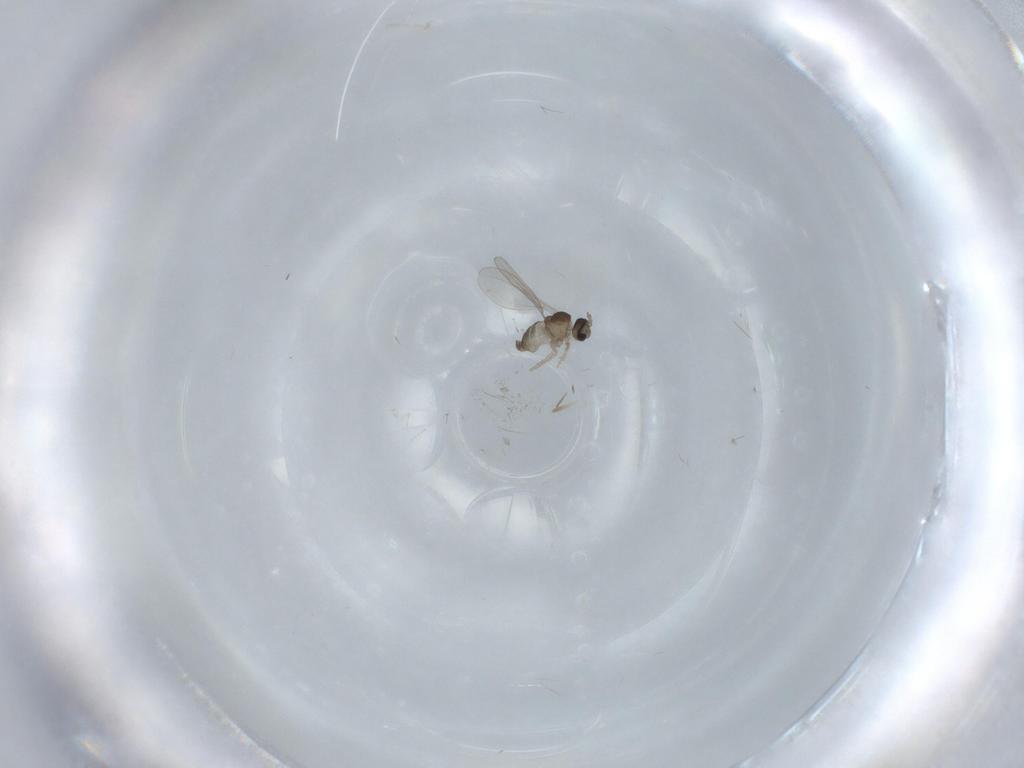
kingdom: Animalia
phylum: Arthropoda
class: Insecta
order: Diptera
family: Cecidomyiidae
